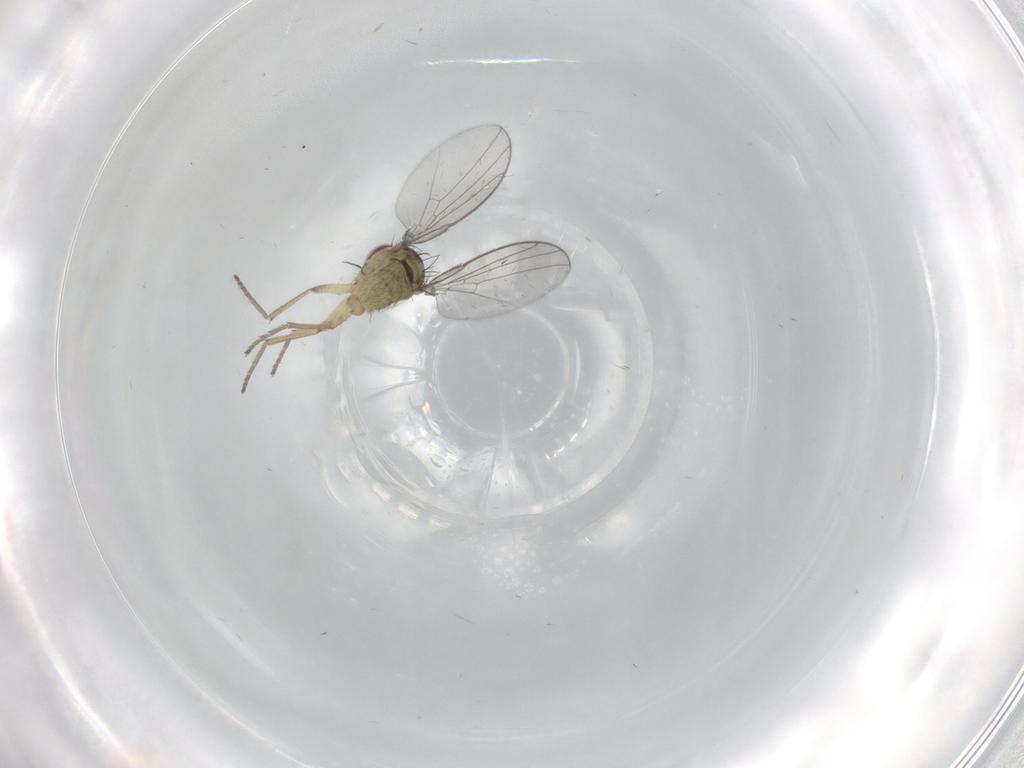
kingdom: Animalia
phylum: Arthropoda
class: Insecta
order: Diptera
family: Agromyzidae
